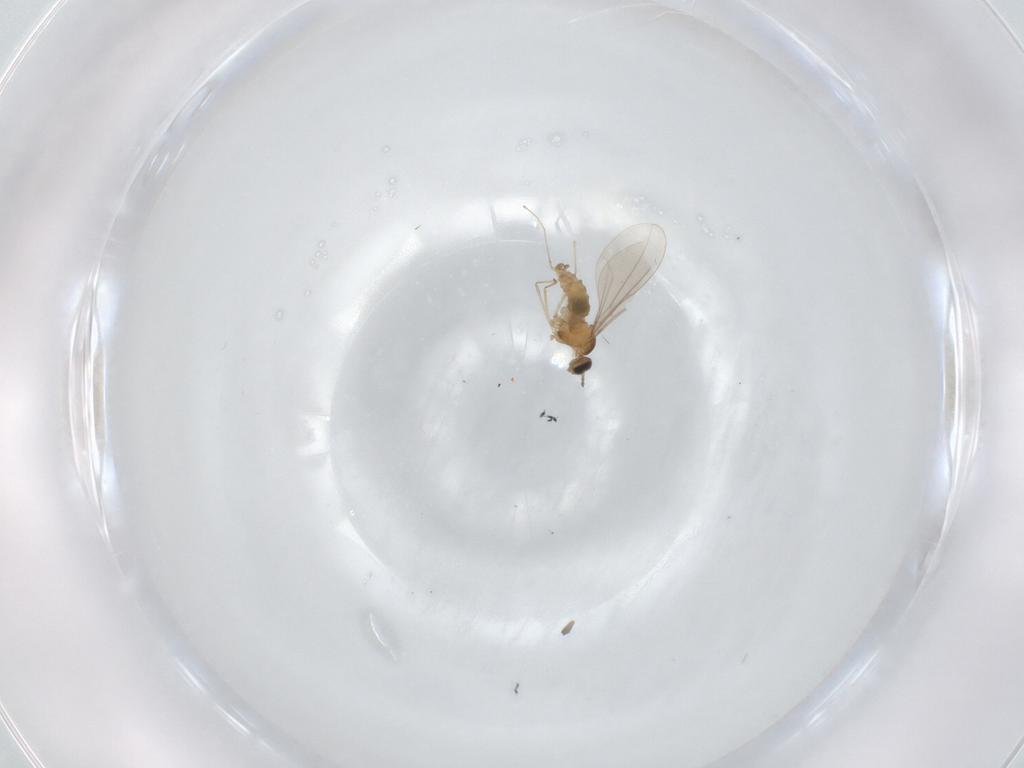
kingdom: Animalia
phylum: Arthropoda
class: Insecta
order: Diptera
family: Cecidomyiidae
